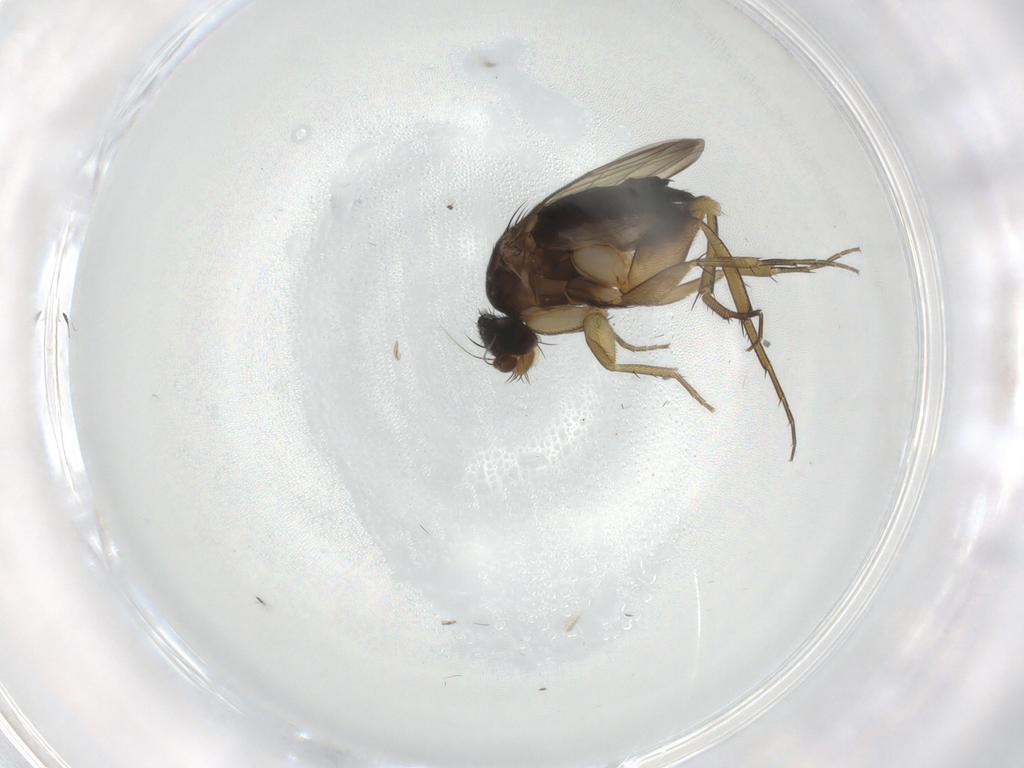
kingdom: Animalia
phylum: Arthropoda
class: Insecta
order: Diptera
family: Phoridae
